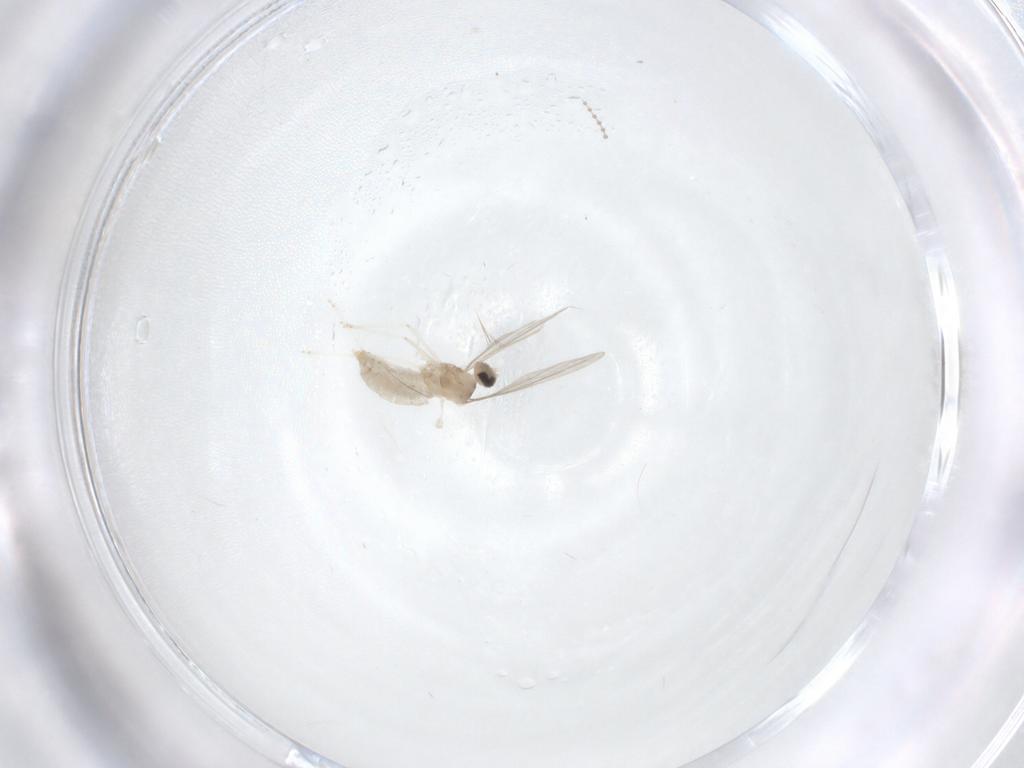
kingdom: Animalia
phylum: Arthropoda
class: Insecta
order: Diptera
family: Cecidomyiidae
